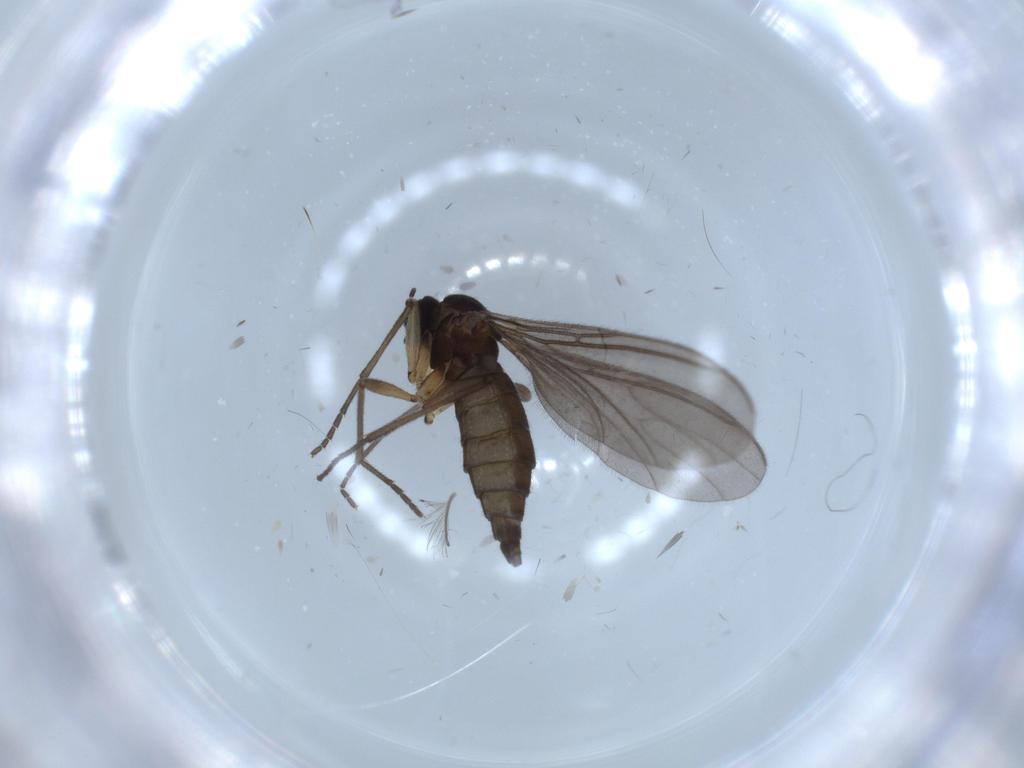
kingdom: Animalia
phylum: Arthropoda
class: Insecta
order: Diptera
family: Sciaridae
